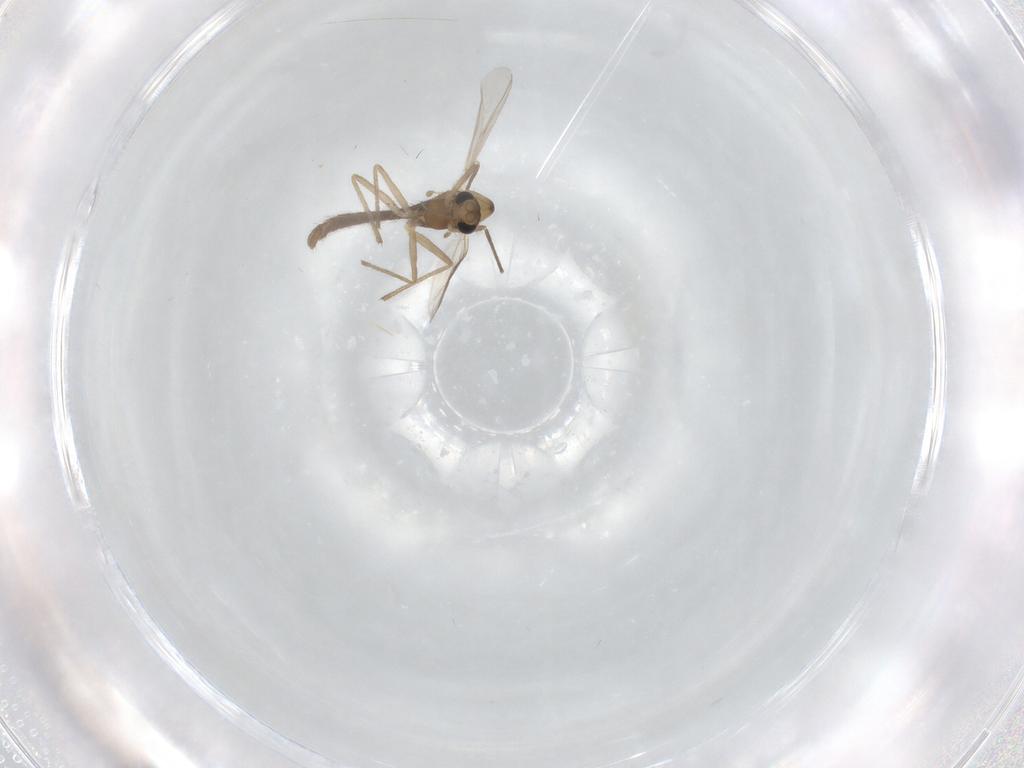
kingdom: Animalia
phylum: Arthropoda
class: Insecta
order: Diptera
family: Chironomidae
